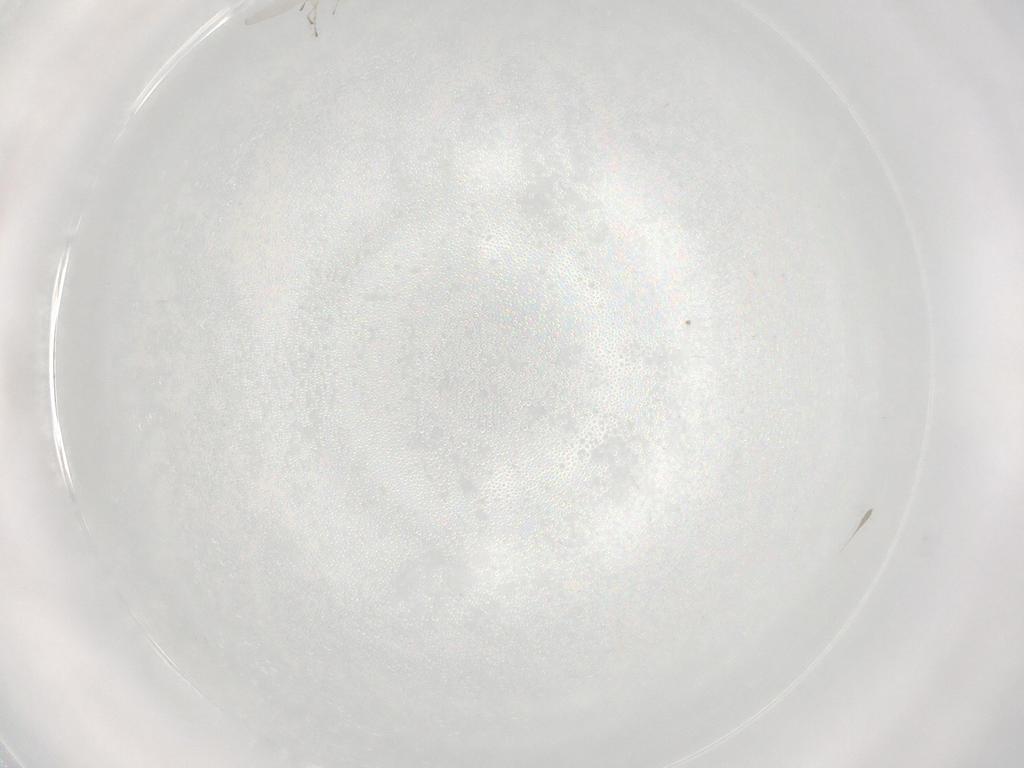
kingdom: Animalia
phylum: Arthropoda
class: Insecta
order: Diptera
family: Cecidomyiidae
